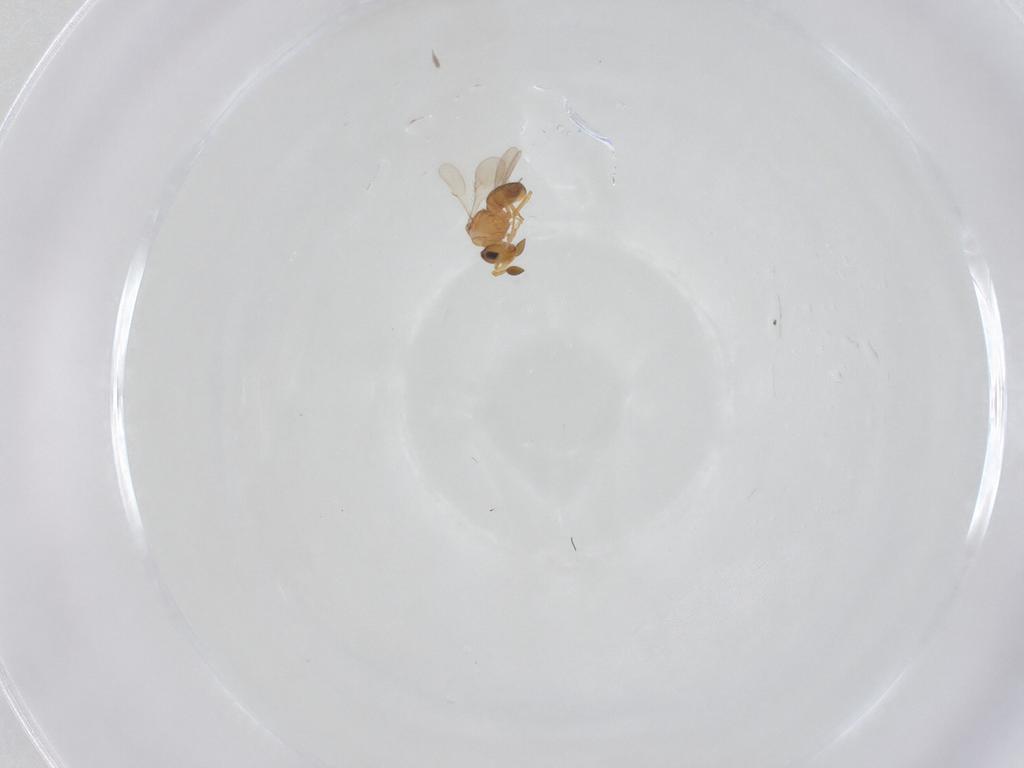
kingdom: Animalia
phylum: Arthropoda
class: Insecta
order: Hymenoptera
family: Scelionidae
